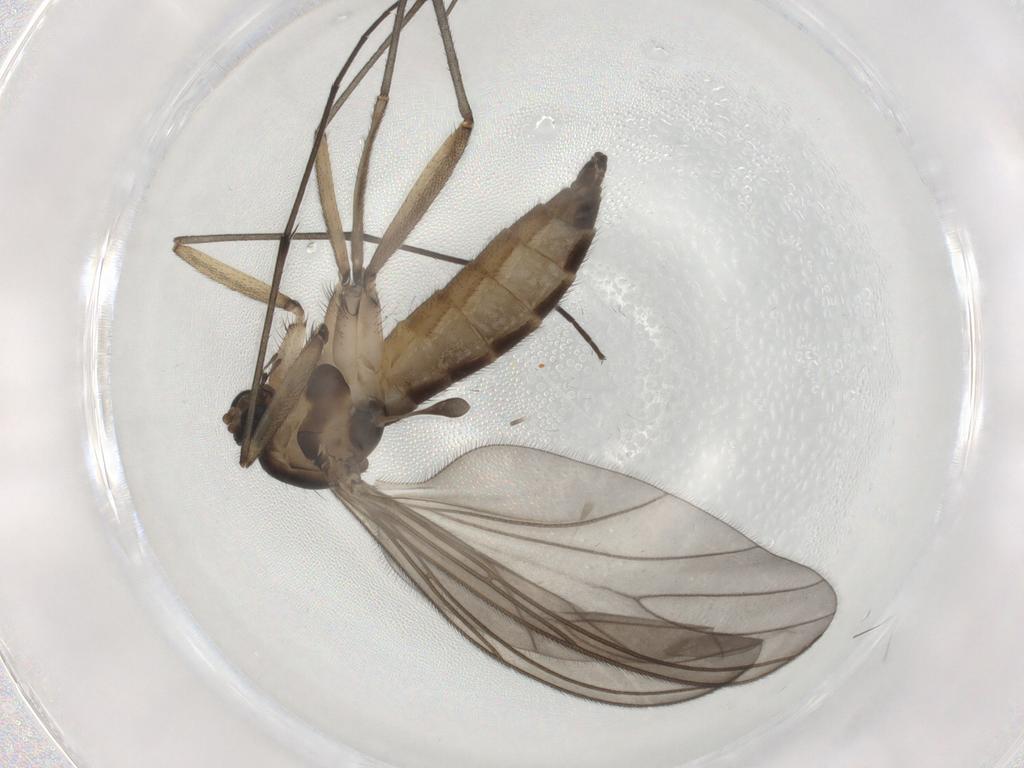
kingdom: Animalia
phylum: Arthropoda
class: Insecta
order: Diptera
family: Sciaridae
